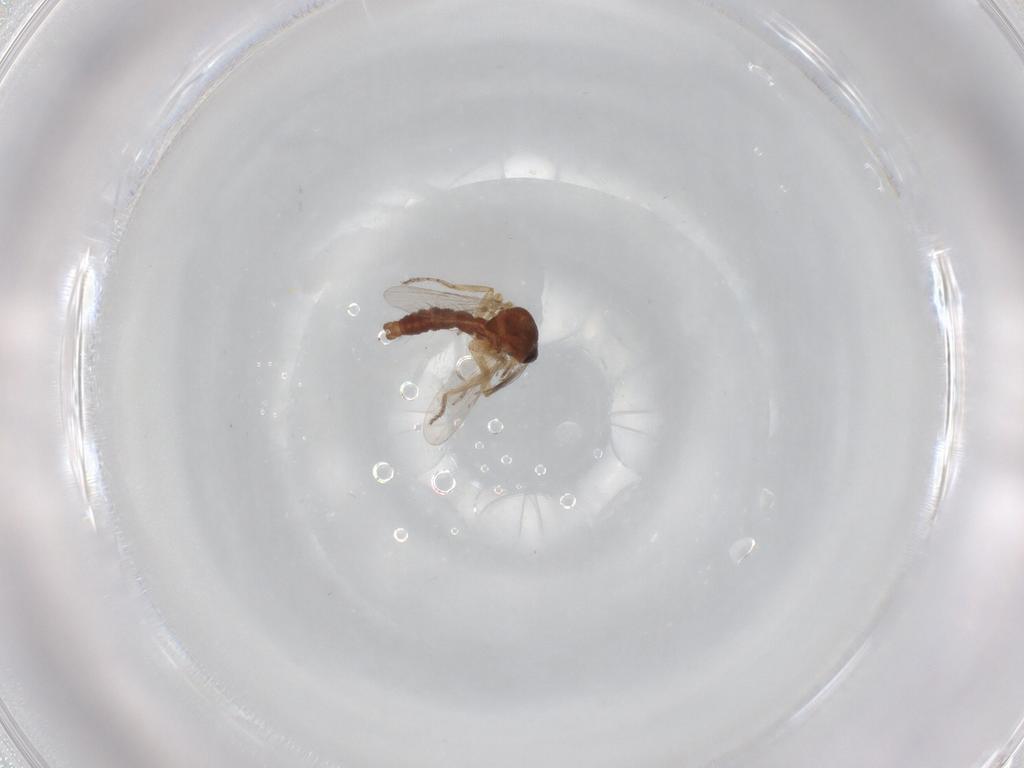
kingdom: Animalia
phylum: Arthropoda
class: Insecta
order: Diptera
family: Ceratopogonidae
